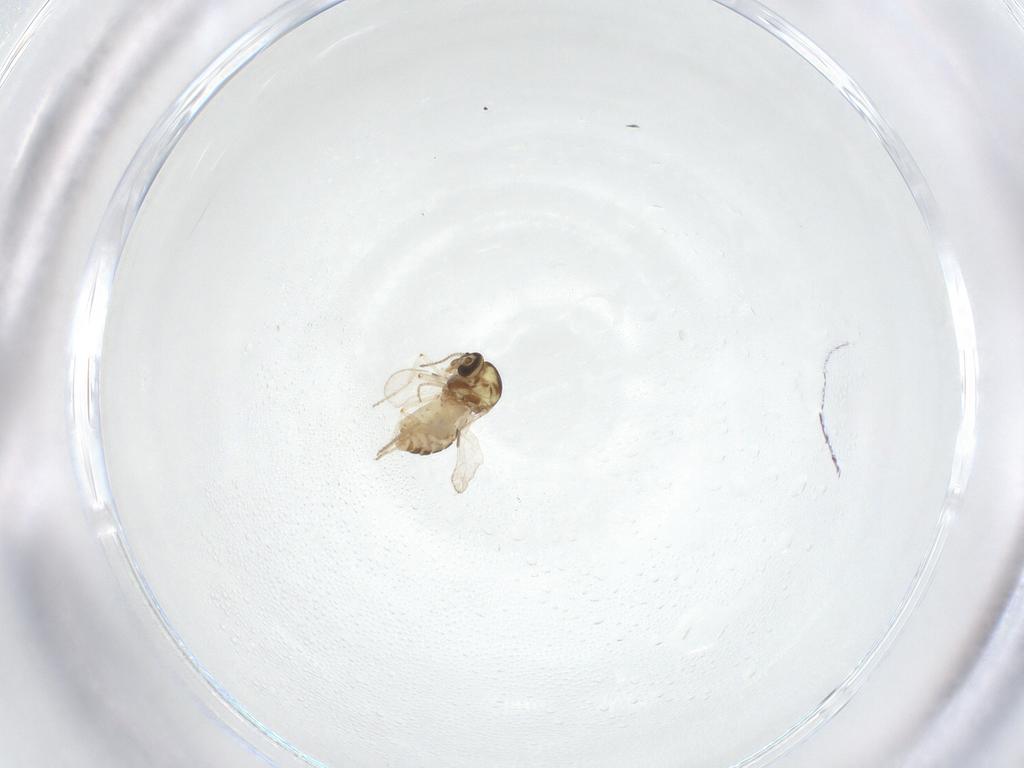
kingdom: Animalia
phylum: Arthropoda
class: Insecta
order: Diptera
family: Ceratopogonidae
